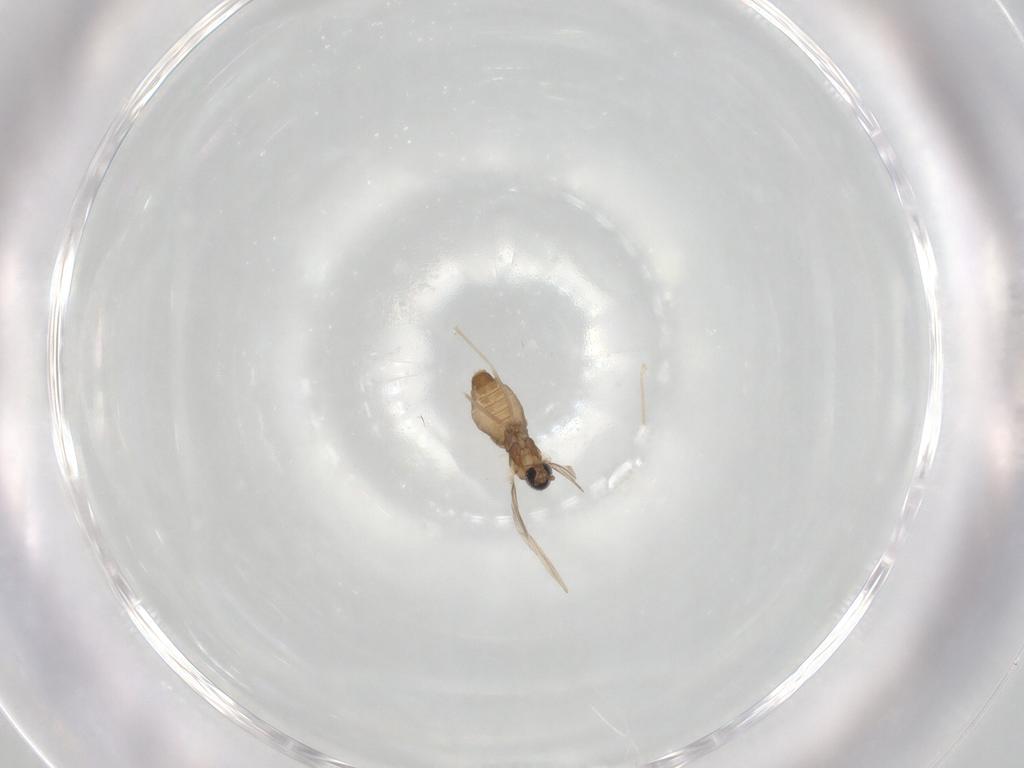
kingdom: Animalia
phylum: Arthropoda
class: Insecta
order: Diptera
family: Cecidomyiidae
